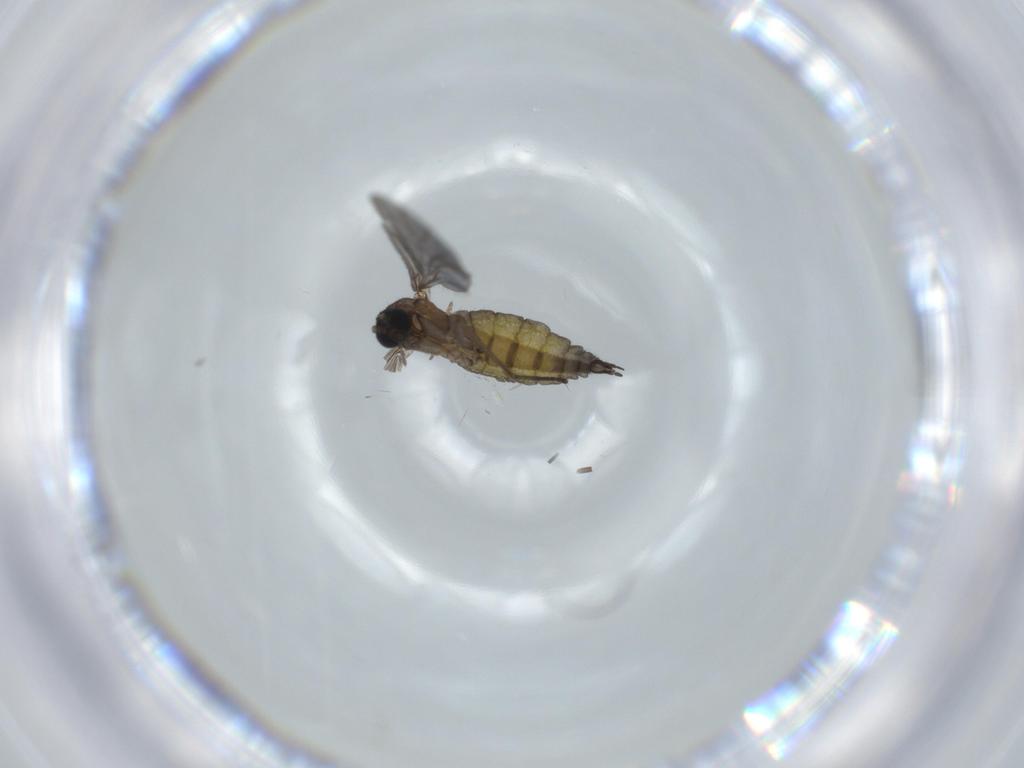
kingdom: Animalia
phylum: Arthropoda
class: Insecta
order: Diptera
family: Sciaridae
